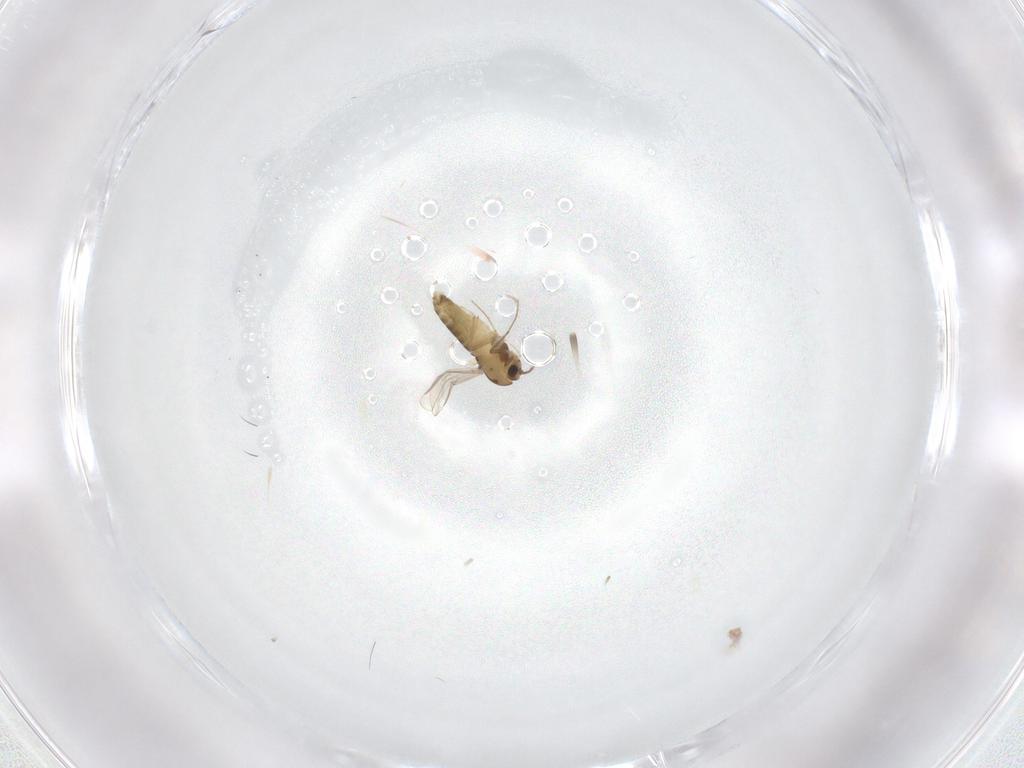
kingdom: Animalia
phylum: Arthropoda
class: Insecta
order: Diptera
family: Chironomidae
